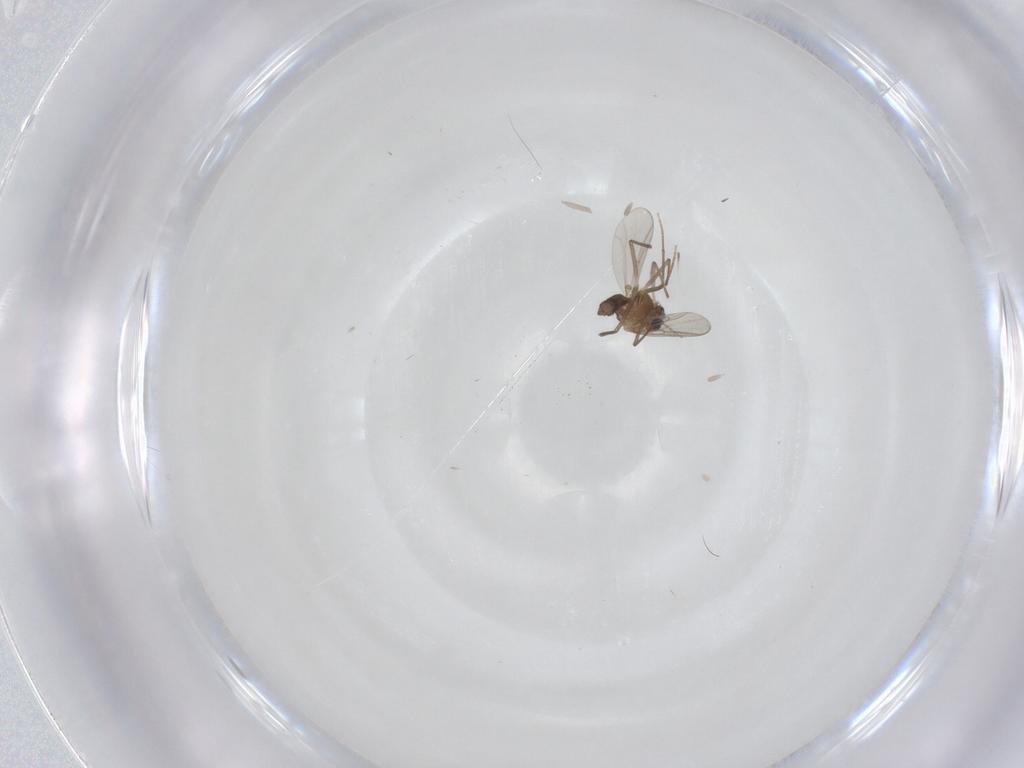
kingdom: Animalia
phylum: Arthropoda
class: Insecta
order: Diptera
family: Chironomidae
